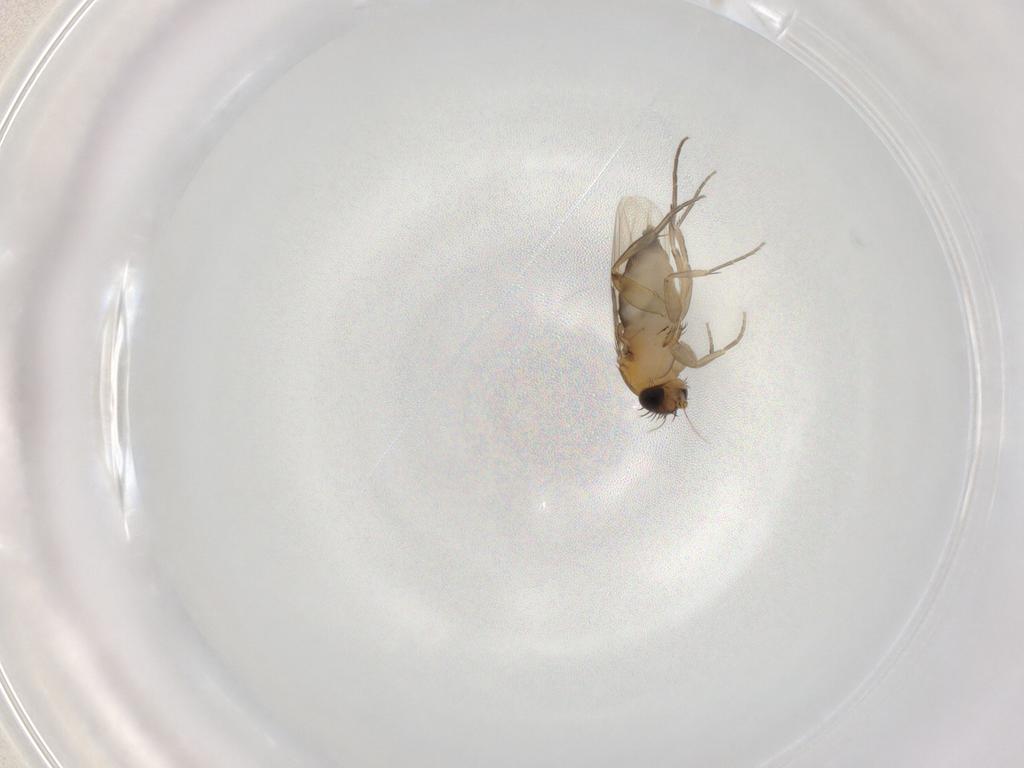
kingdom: Animalia
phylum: Arthropoda
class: Insecta
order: Diptera
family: Phoridae
